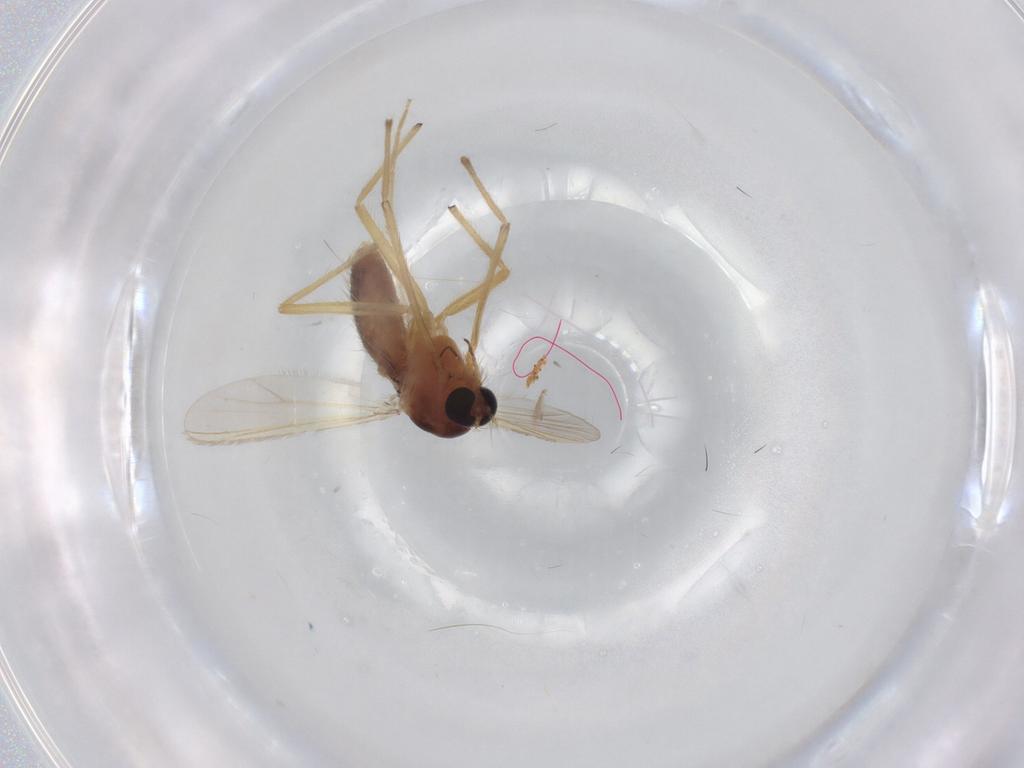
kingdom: Animalia
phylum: Arthropoda
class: Insecta
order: Diptera
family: Chironomidae
